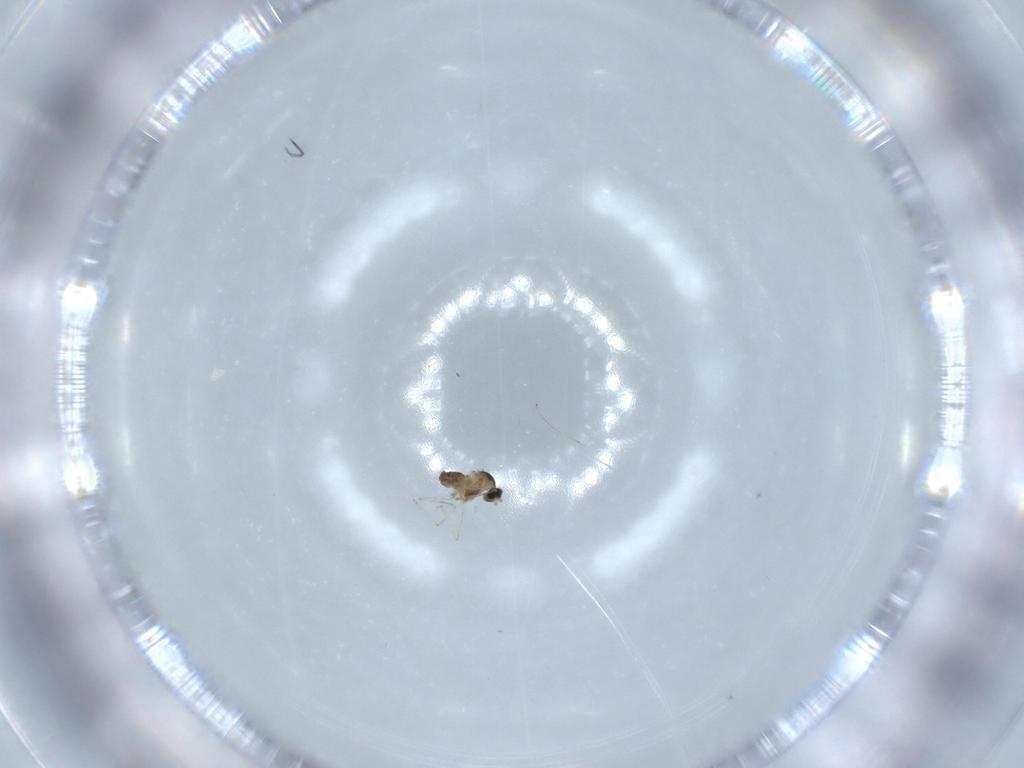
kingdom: Animalia
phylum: Arthropoda
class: Insecta
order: Diptera
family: Cecidomyiidae
